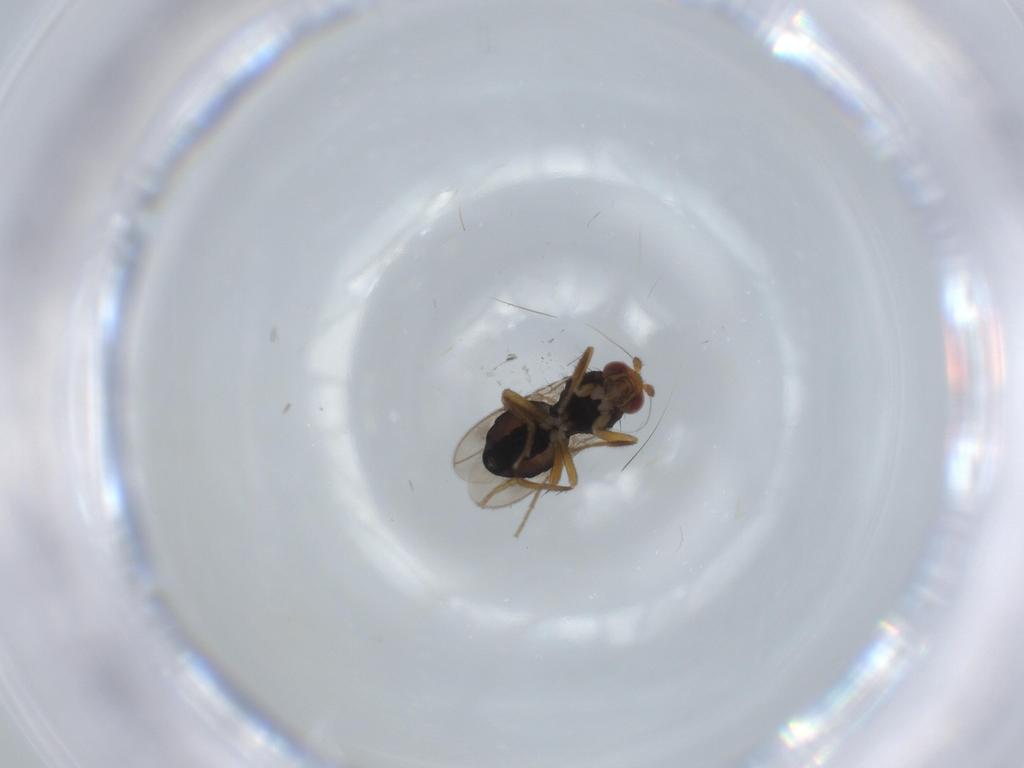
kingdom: Animalia
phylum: Arthropoda
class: Insecta
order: Diptera
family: Sphaeroceridae
